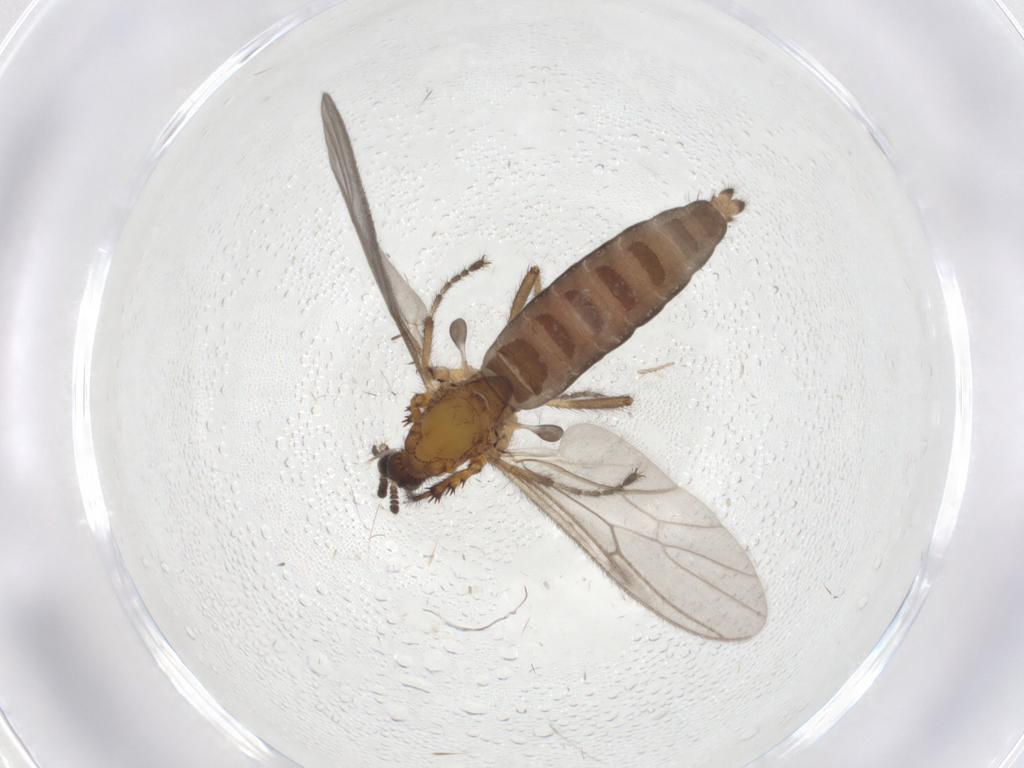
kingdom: Animalia
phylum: Arthropoda
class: Insecta
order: Diptera
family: Bibionidae
